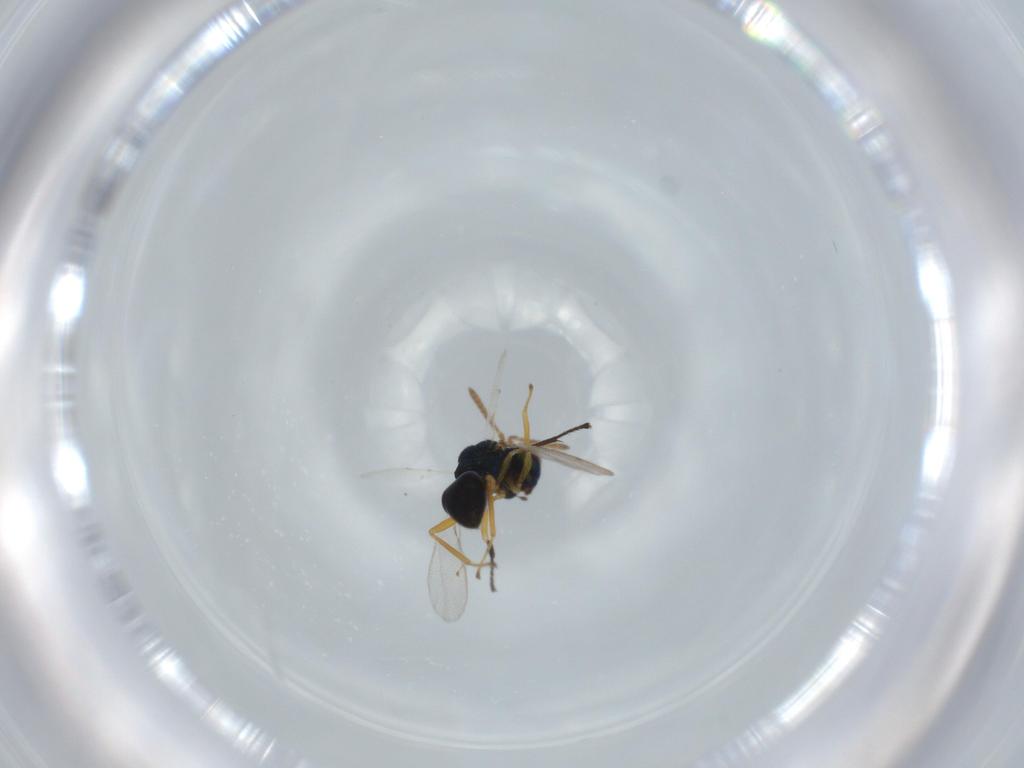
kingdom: Animalia
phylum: Arthropoda
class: Insecta
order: Hymenoptera
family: Pteromalidae
